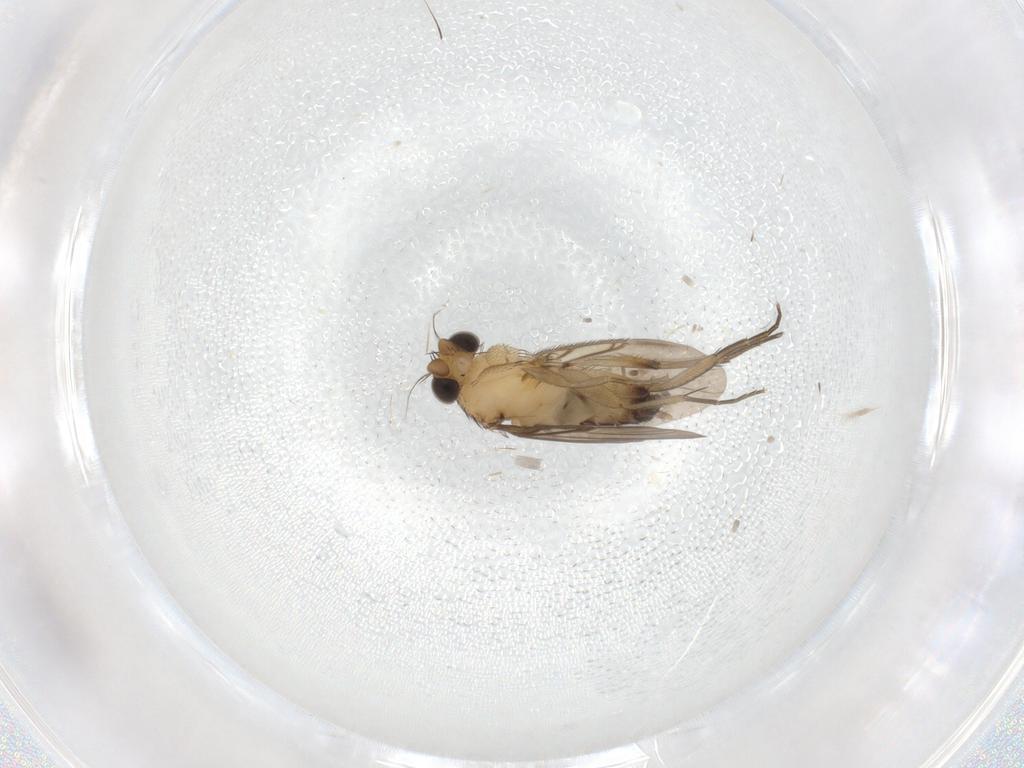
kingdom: Animalia
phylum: Arthropoda
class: Insecta
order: Diptera
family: Phoridae
